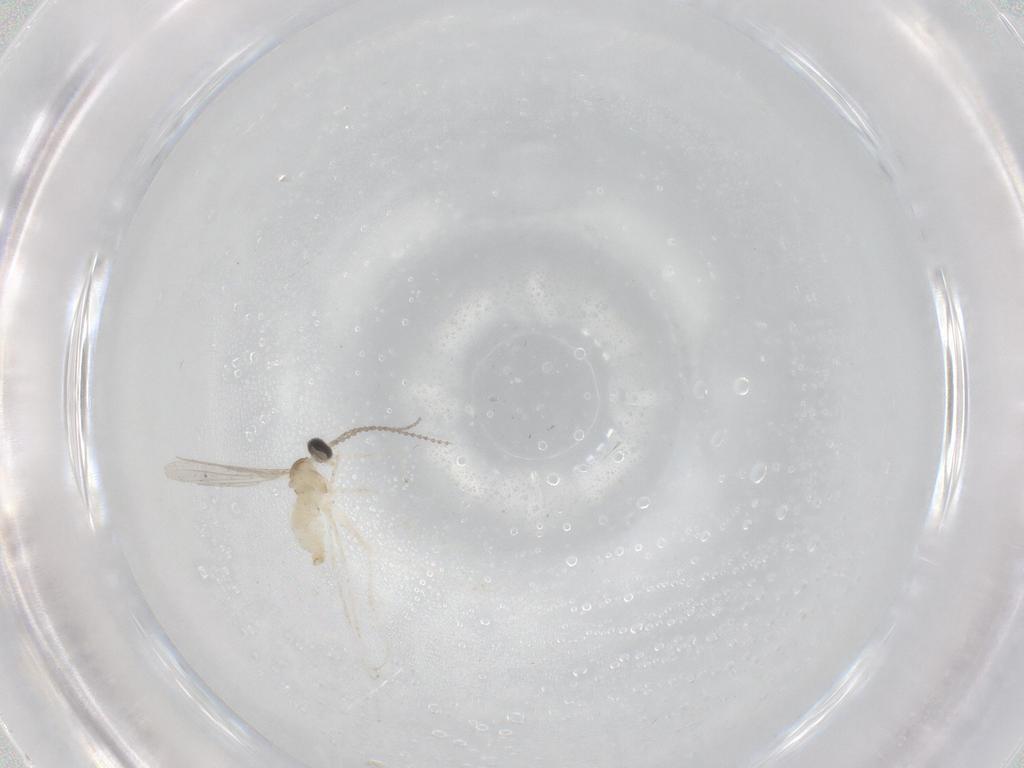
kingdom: Animalia
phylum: Arthropoda
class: Insecta
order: Diptera
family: Cecidomyiidae
